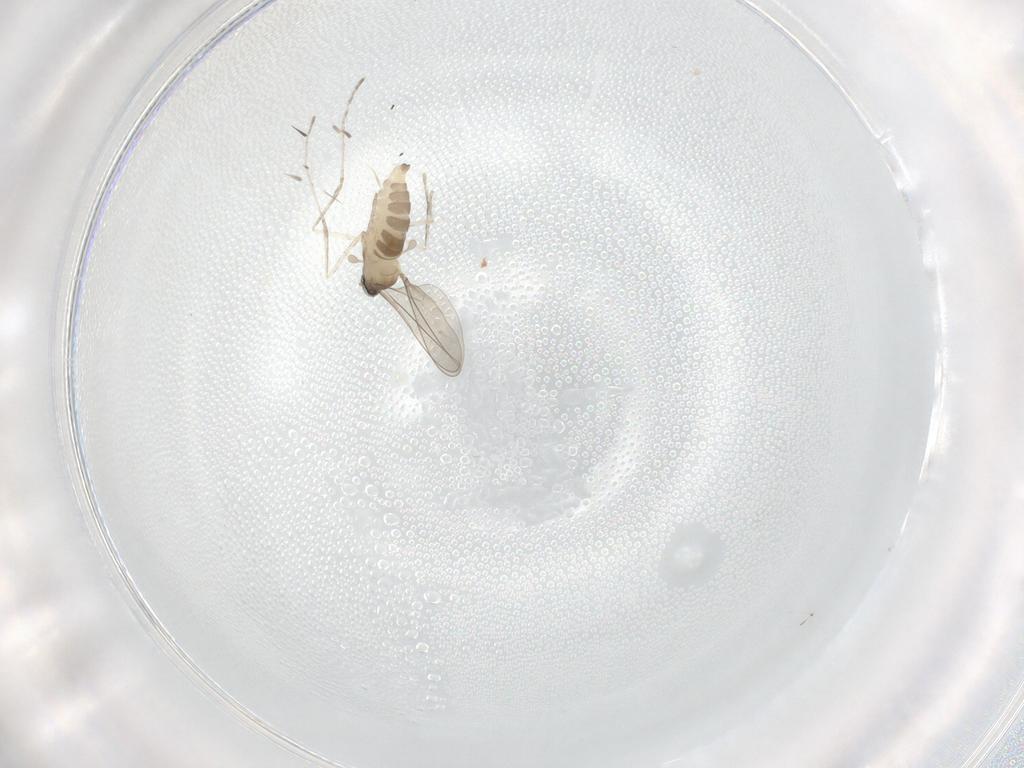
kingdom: Animalia
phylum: Arthropoda
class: Insecta
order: Diptera
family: Cecidomyiidae
